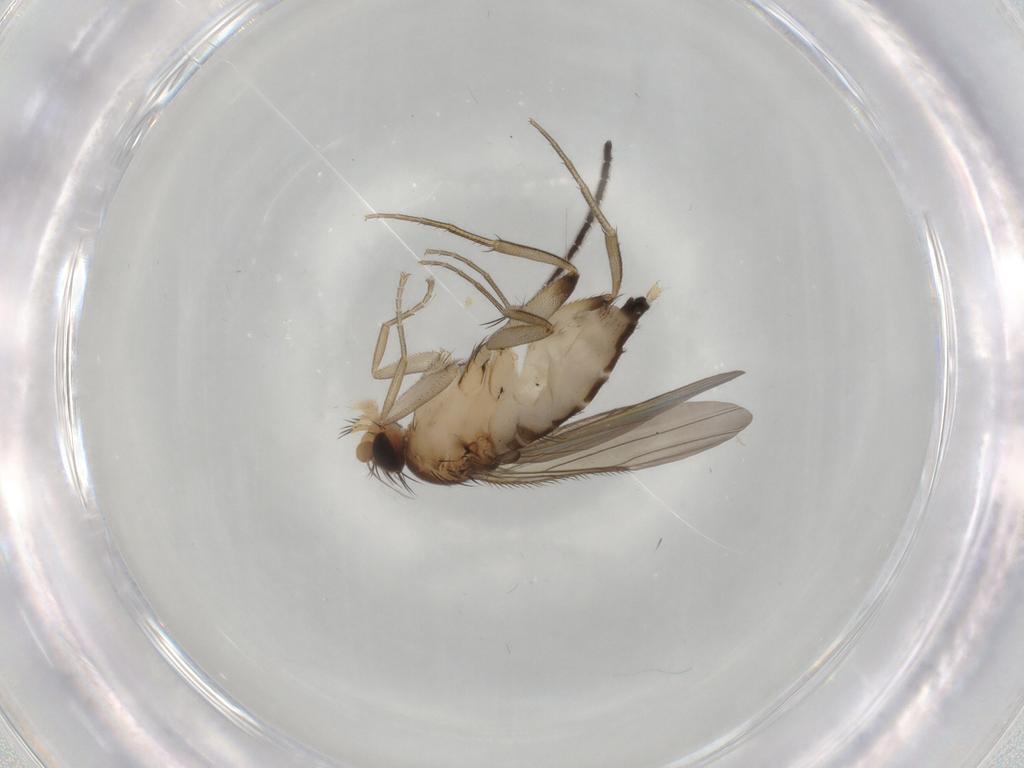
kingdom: Animalia
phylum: Arthropoda
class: Insecta
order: Diptera
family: Phoridae
